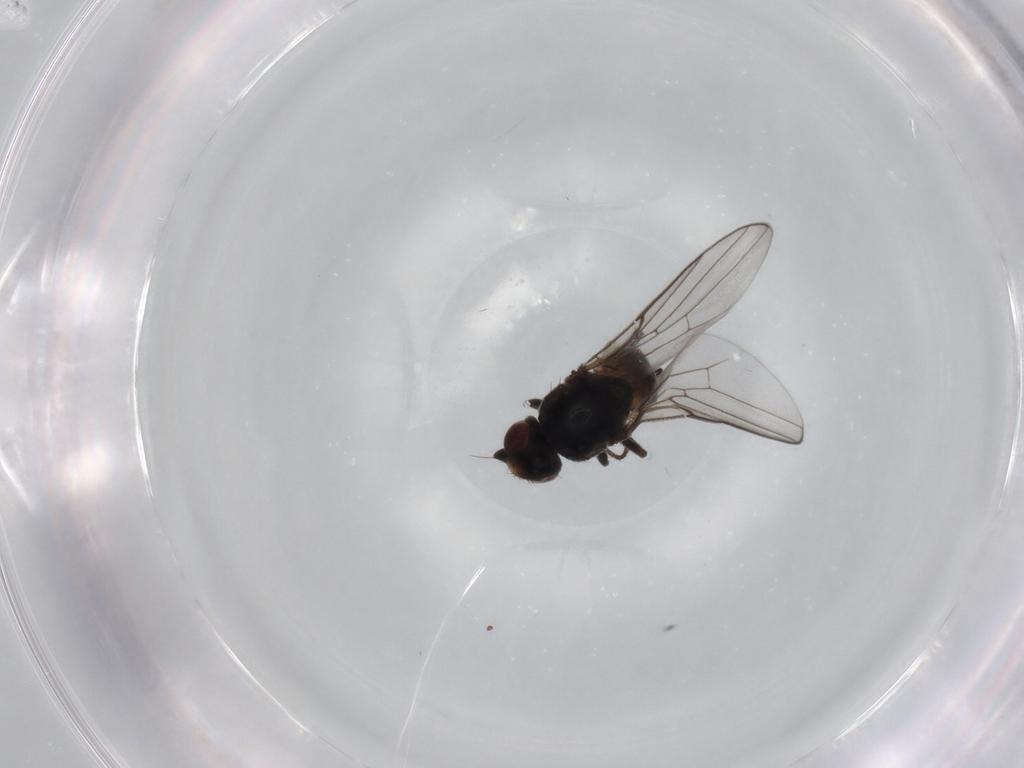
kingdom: Animalia
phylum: Arthropoda
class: Insecta
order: Diptera
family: Chloropidae
